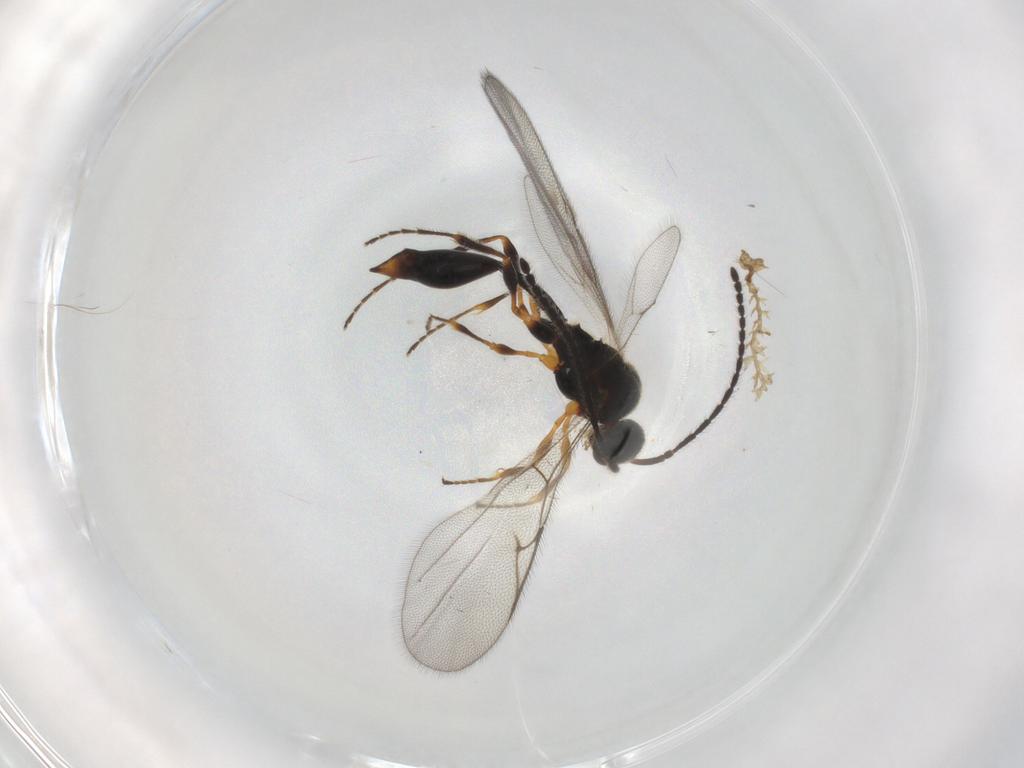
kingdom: Animalia
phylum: Arthropoda
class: Insecta
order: Hymenoptera
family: Diapriidae
